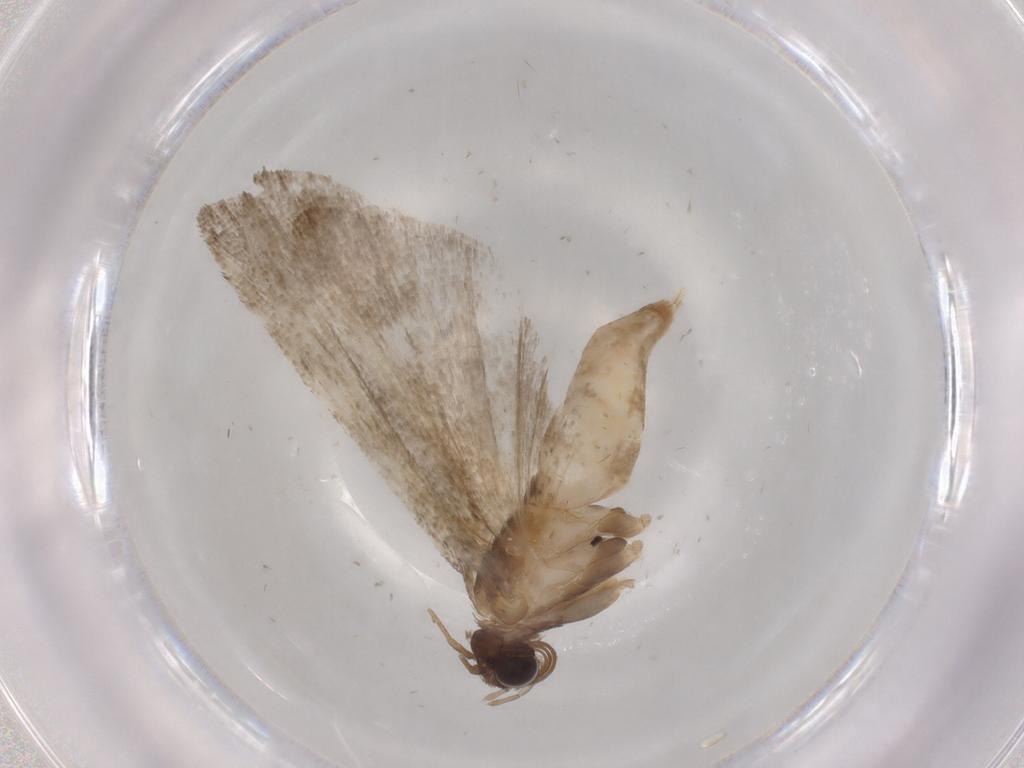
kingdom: Animalia
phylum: Arthropoda
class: Insecta
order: Lepidoptera
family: Noctuidae
